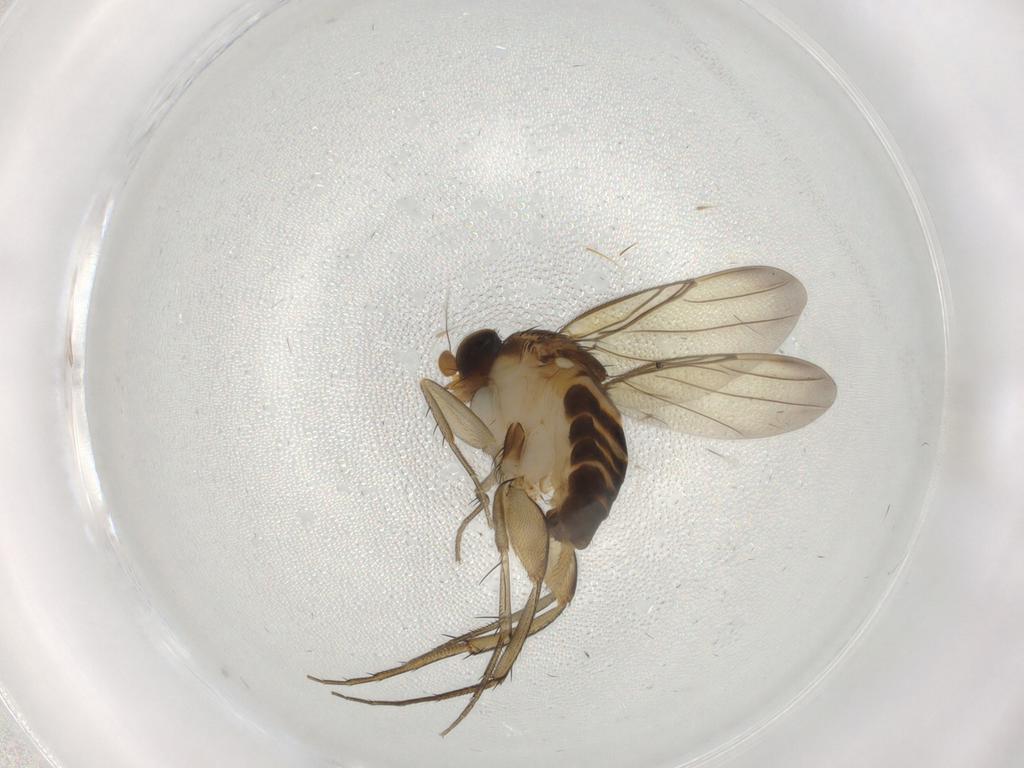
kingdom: Animalia
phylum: Arthropoda
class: Insecta
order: Diptera
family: Phoridae
